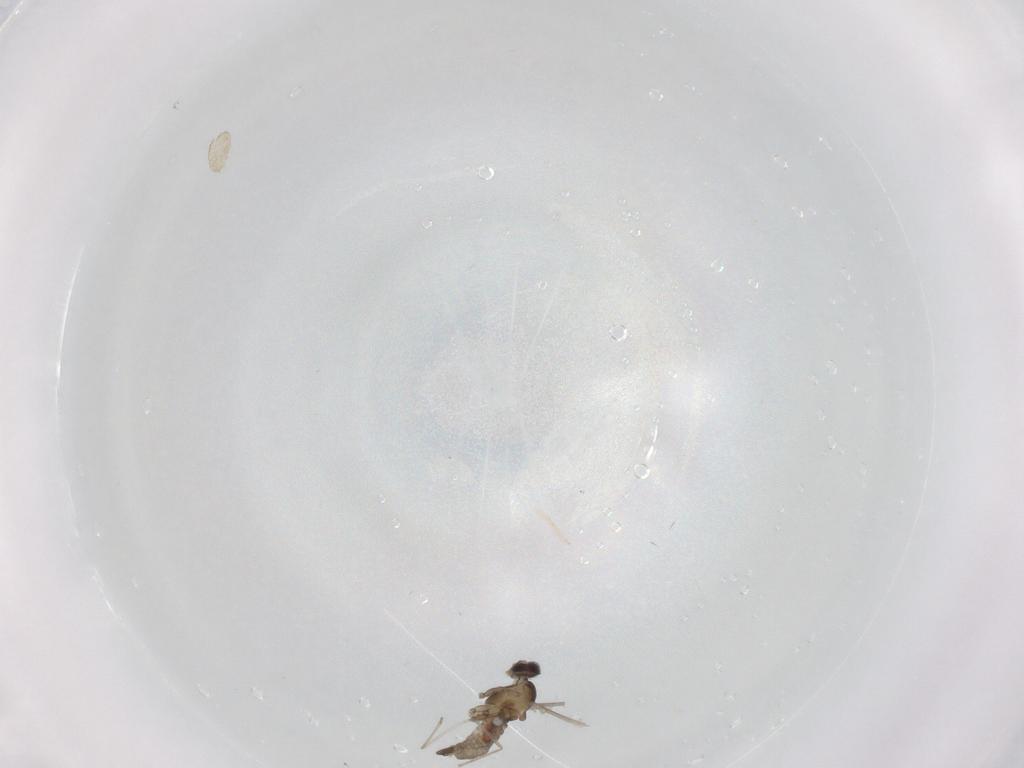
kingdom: Animalia
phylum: Arthropoda
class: Insecta
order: Diptera
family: Cecidomyiidae
